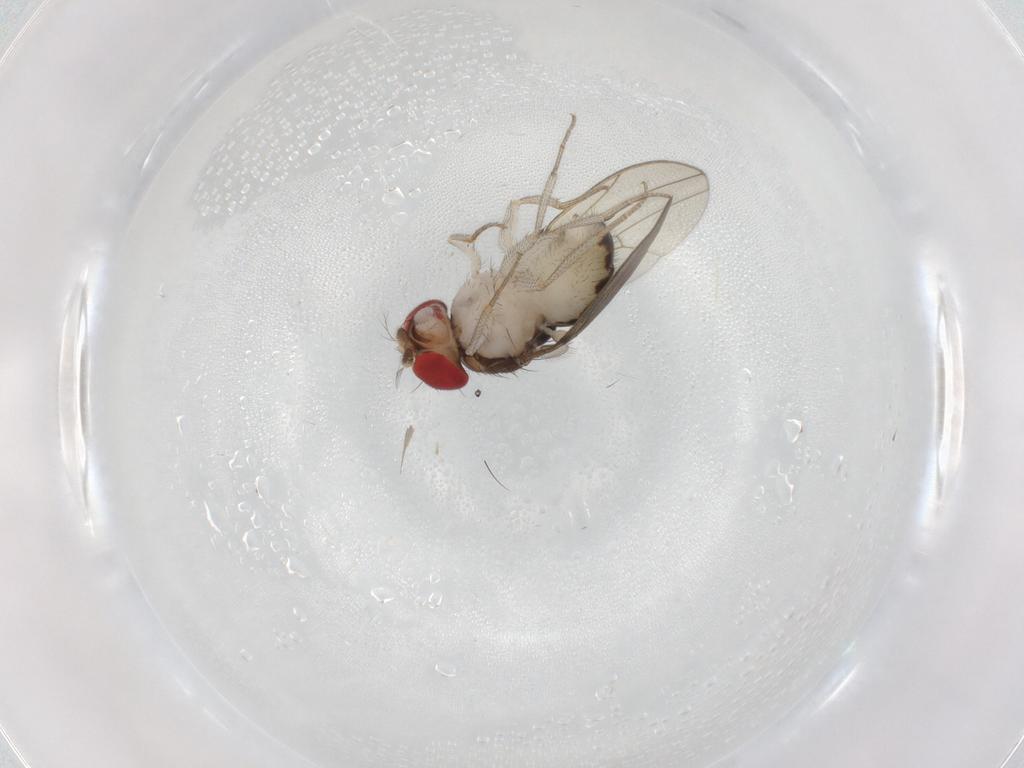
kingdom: Animalia
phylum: Arthropoda
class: Insecta
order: Diptera
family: Drosophilidae
